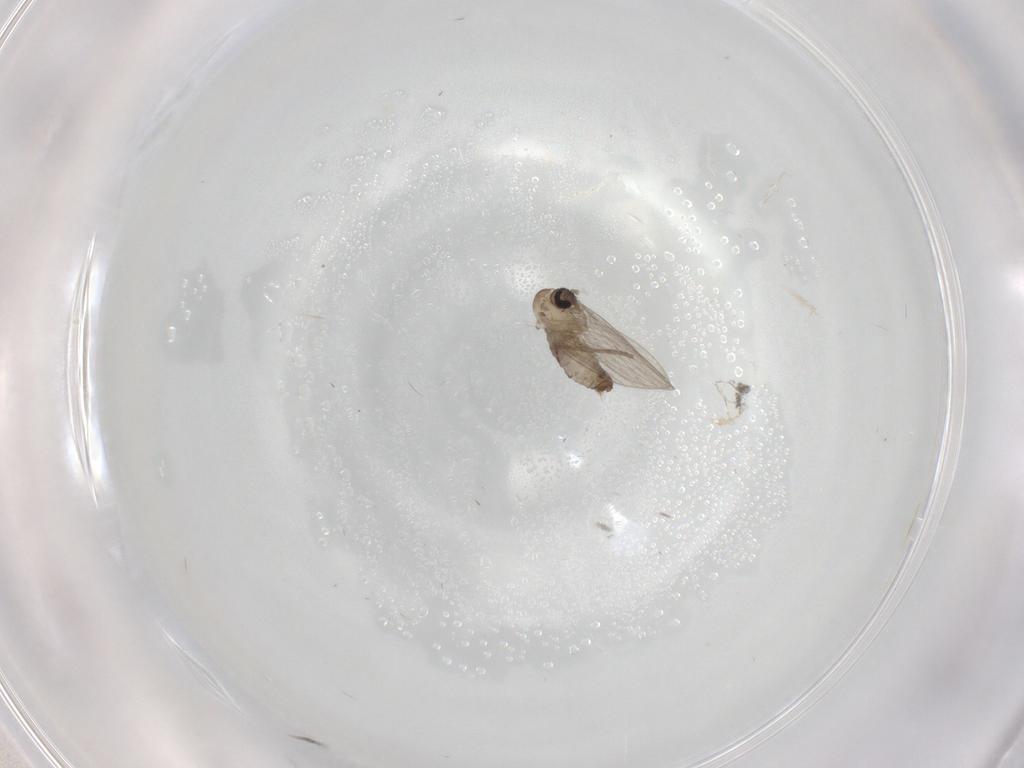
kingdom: Animalia
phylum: Arthropoda
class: Insecta
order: Diptera
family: Psychodidae
